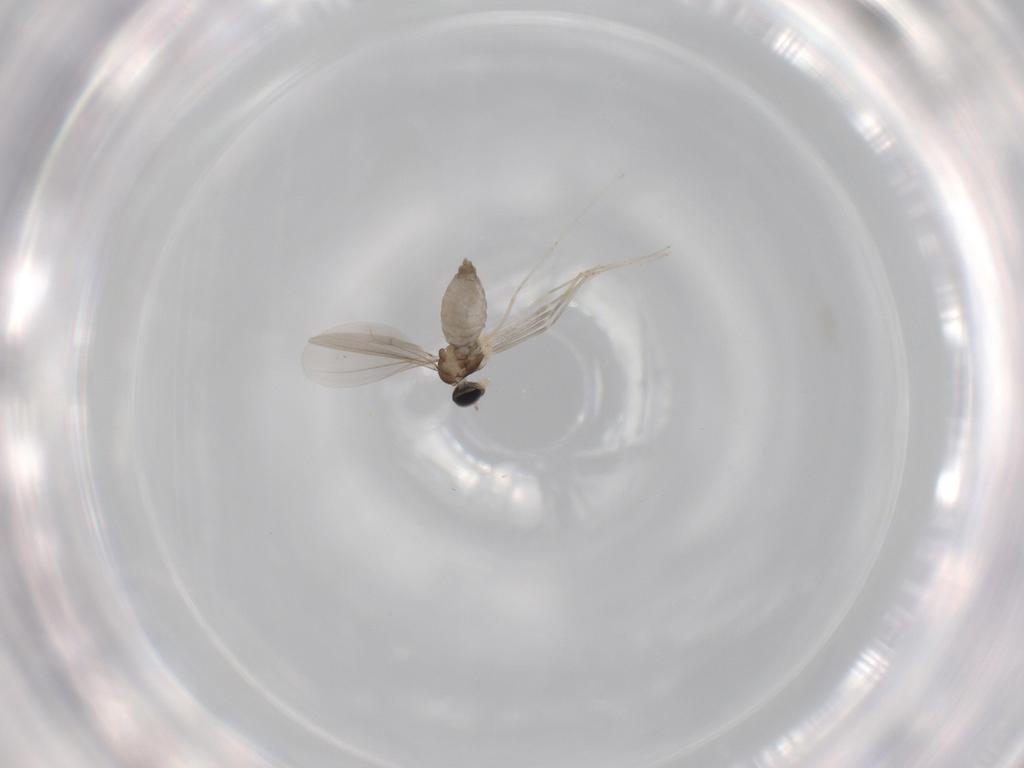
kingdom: Animalia
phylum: Arthropoda
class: Insecta
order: Diptera
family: Cecidomyiidae
